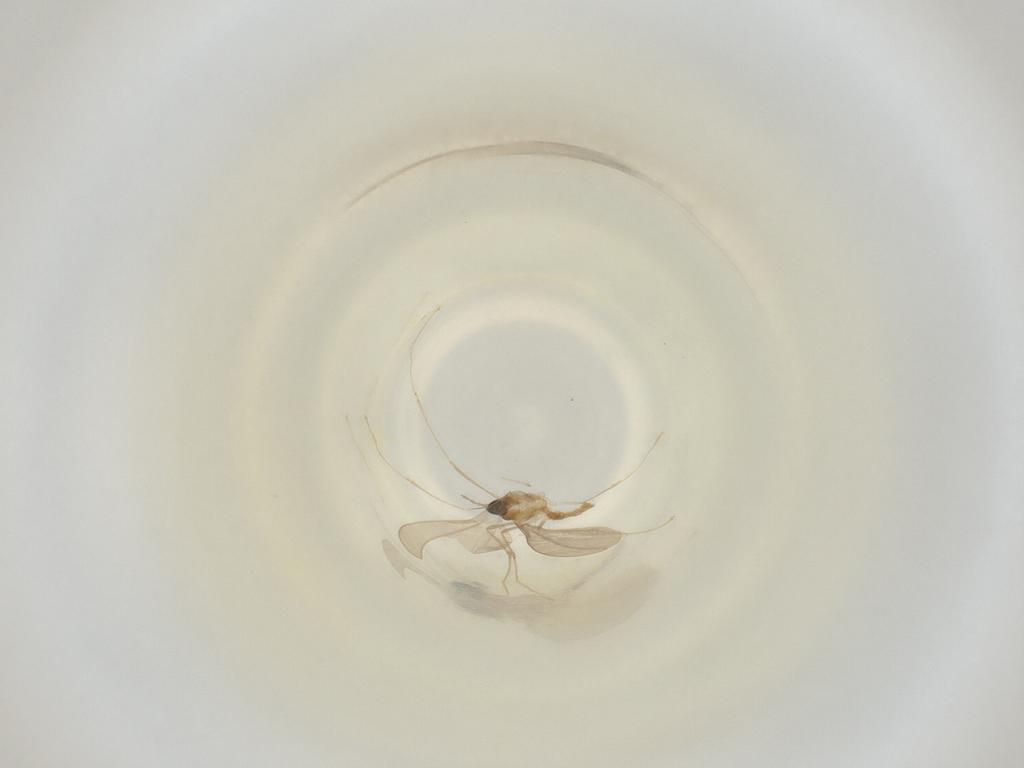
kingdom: Animalia
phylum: Arthropoda
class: Insecta
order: Diptera
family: Cecidomyiidae
